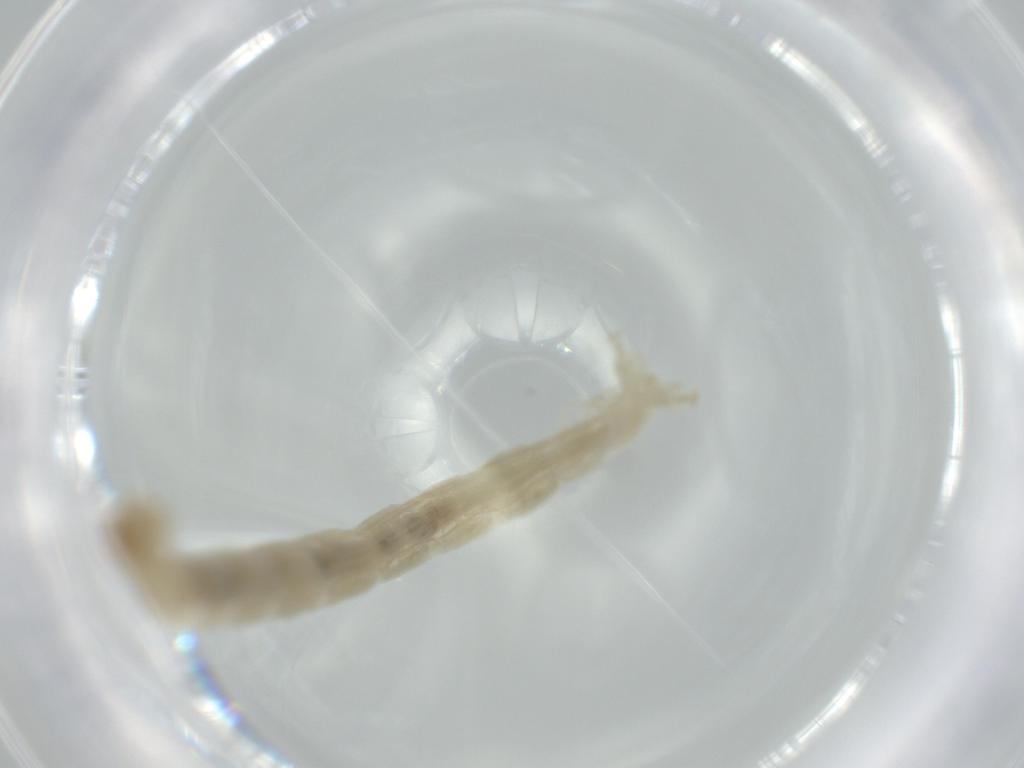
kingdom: Animalia
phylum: Arthropoda
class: Insecta
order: Diptera
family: Chironomidae
